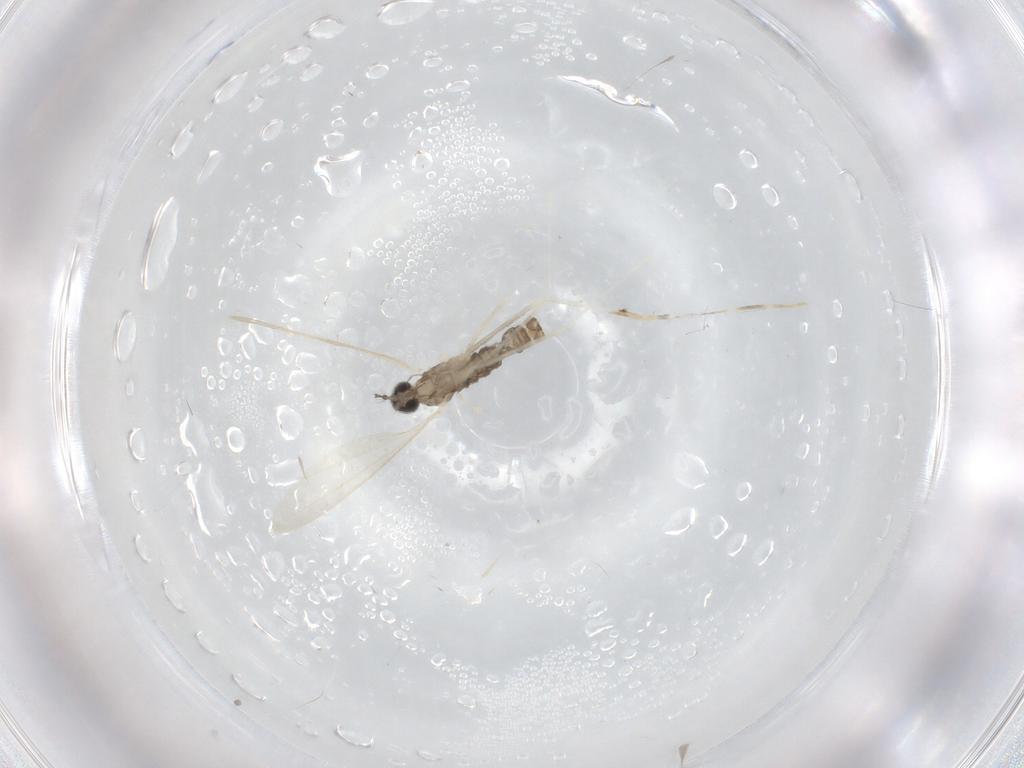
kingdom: Animalia
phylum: Arthropoda
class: Insecta
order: Diptera
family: Cecidomyiidae
